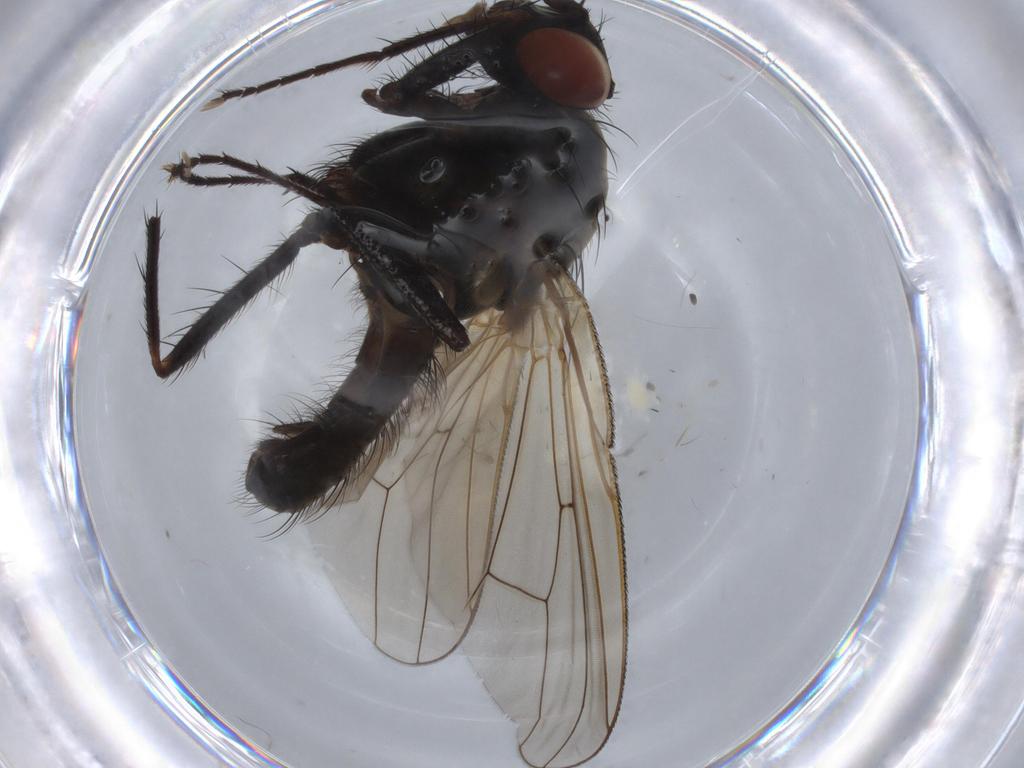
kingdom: Animalia
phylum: Arthropoda
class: Insecta
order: Diptera
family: Anthomyiidae
